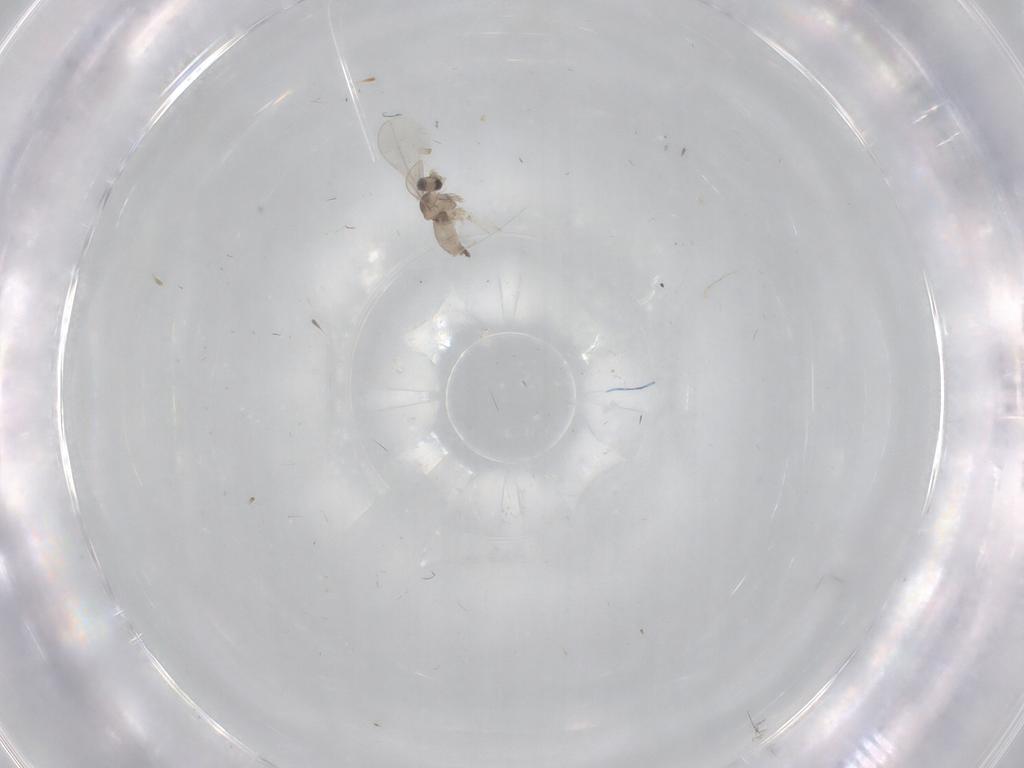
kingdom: Animalia
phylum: Arthropoda
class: Insecta
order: Diptera
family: Cecidomyiidae
